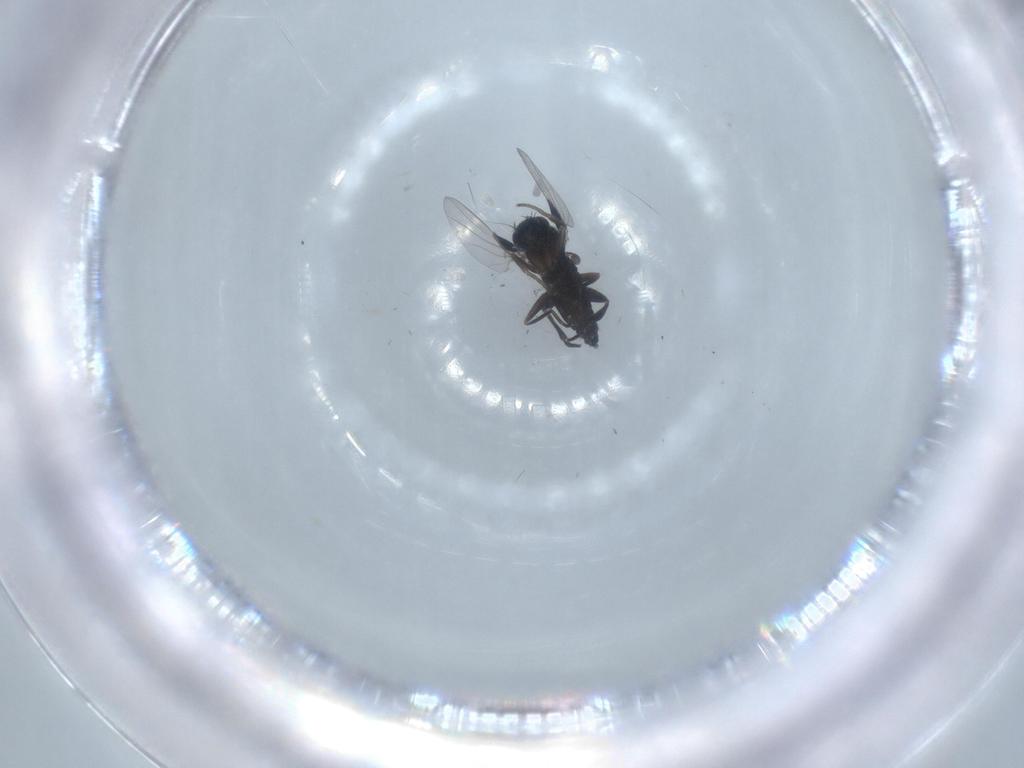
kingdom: Animalia
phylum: Arthropoda
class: Insecta
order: Diptera
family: Phoridae
